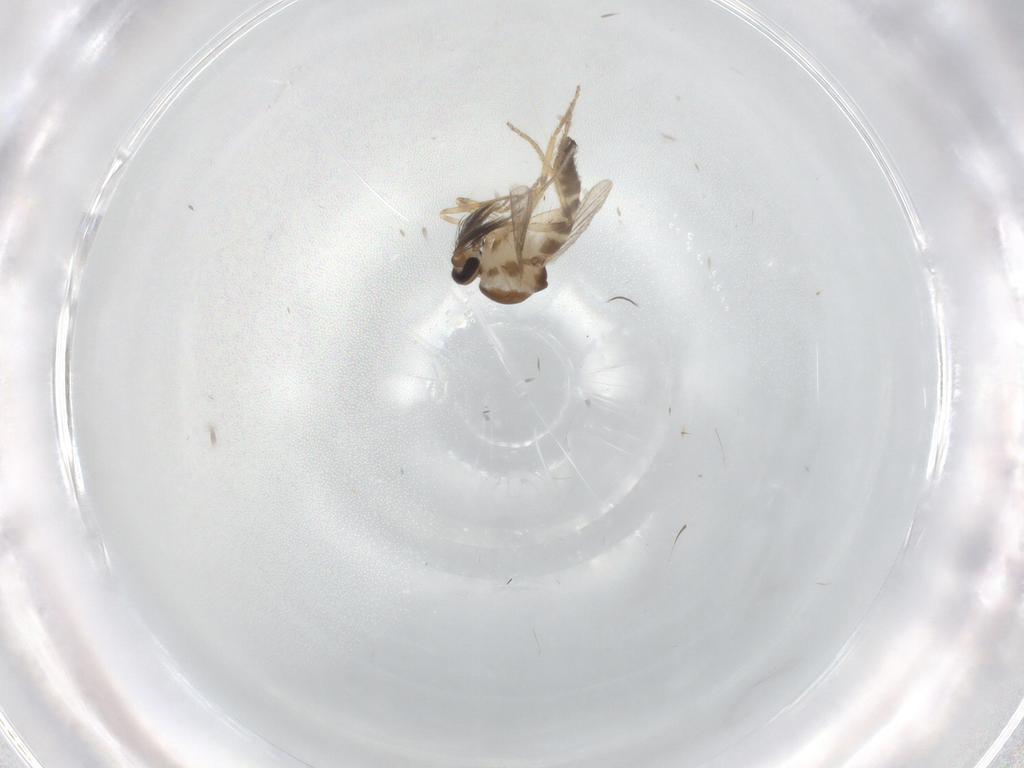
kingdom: Animalia
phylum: Arthropoda
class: Insecta
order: Diptera
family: Ceratopogonidae
